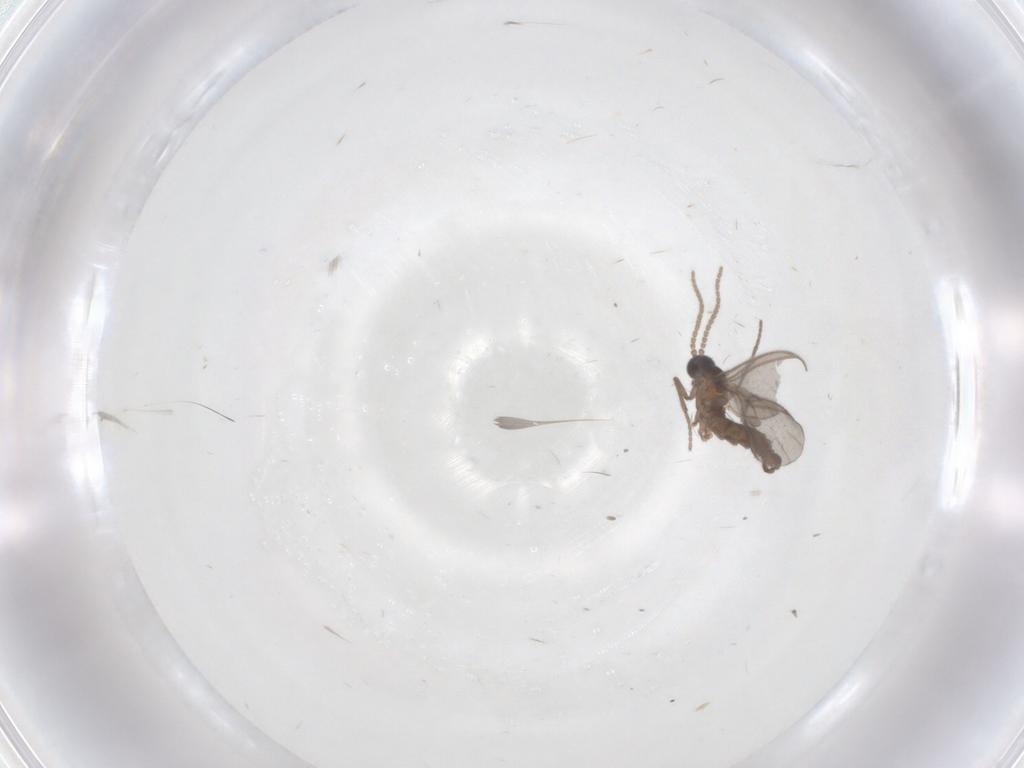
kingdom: Animalia
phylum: Arthropoda
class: Insecta
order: Diptera
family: Sciaridae
